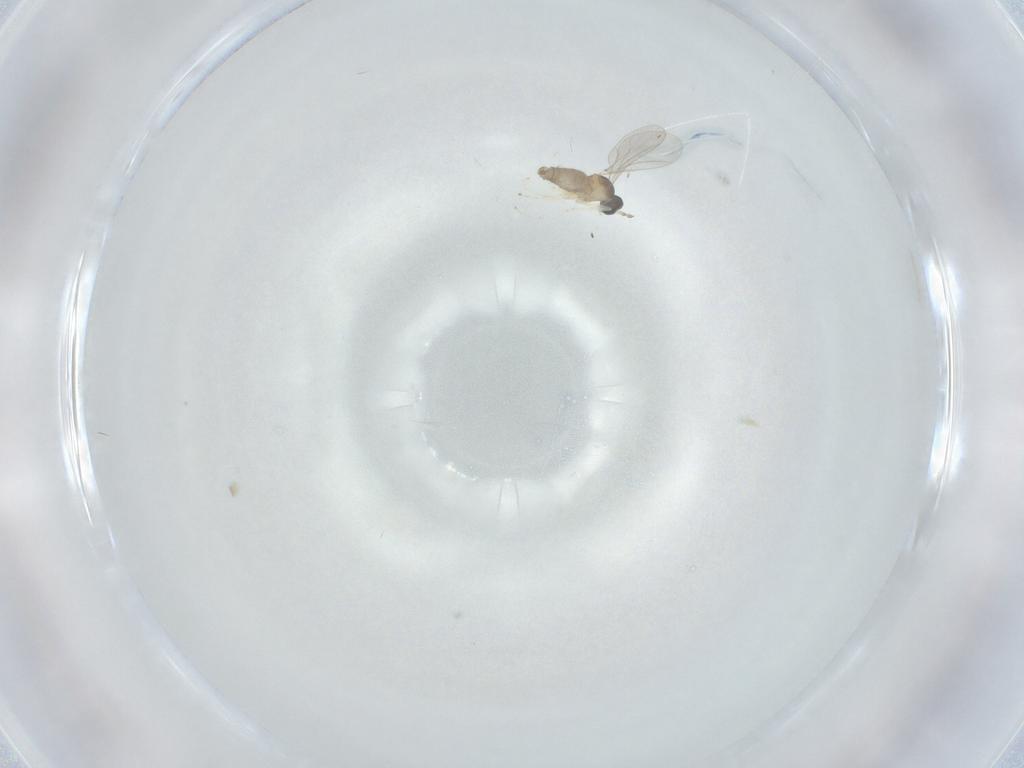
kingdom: Animalia
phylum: Arthropoda
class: Insecta
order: Diptera
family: Cecidomyiidae
